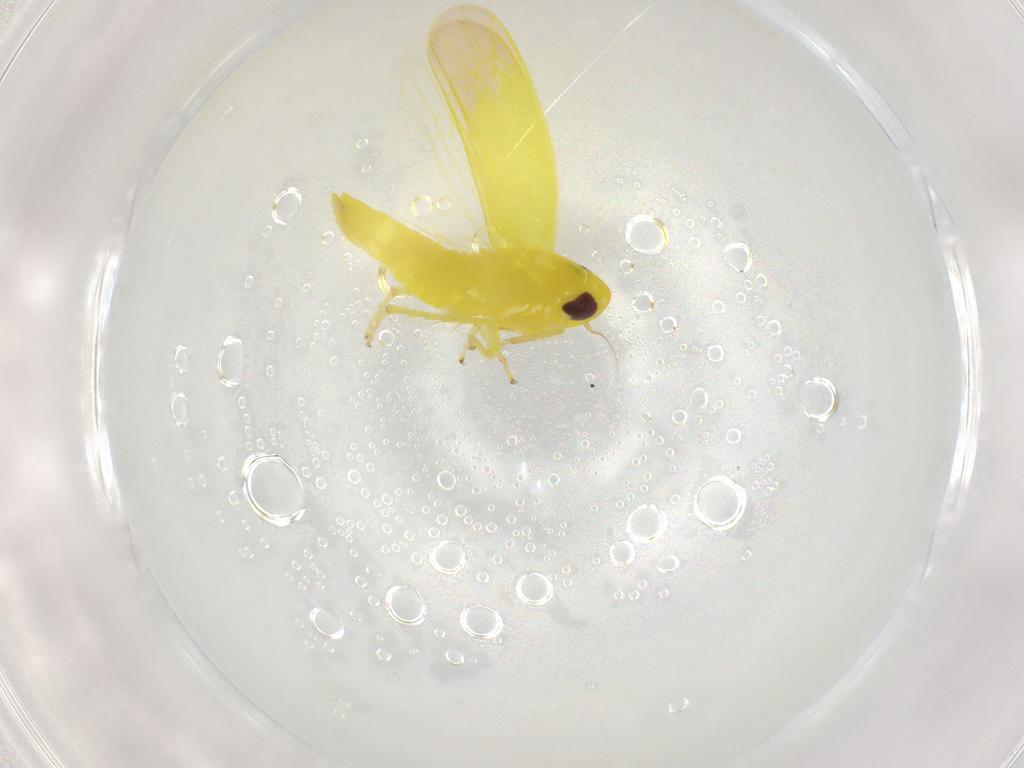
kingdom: Animalia
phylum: Arthropoda
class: Insecta
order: Hemiptera
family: Cicadellidae
